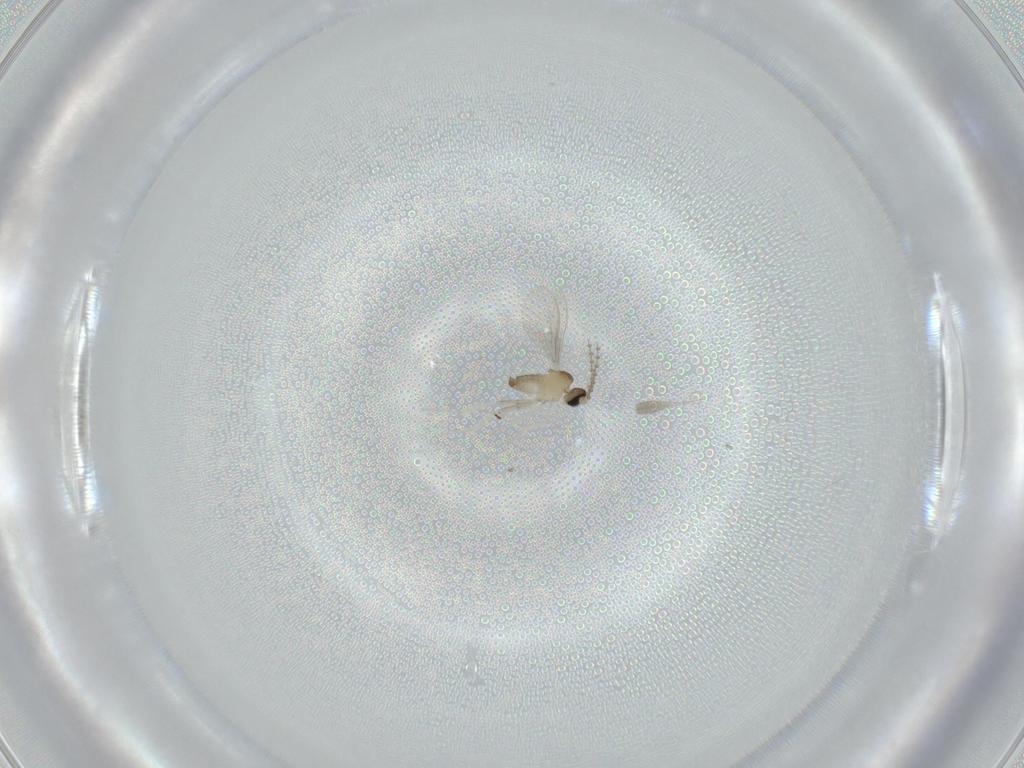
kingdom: Animalia
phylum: Arthropoda
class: Insecta
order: Diptera
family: Cecidomyiidae
